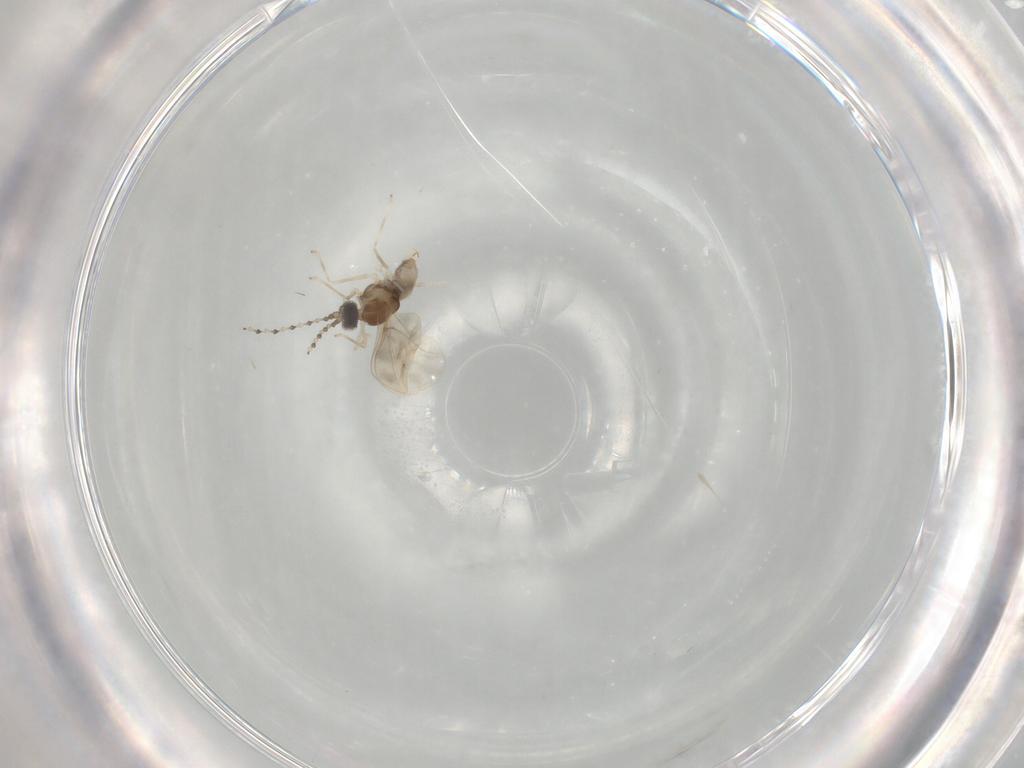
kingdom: Animalia
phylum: Arthropoda
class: Insecta
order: Diptera
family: Cecidomyiidae
